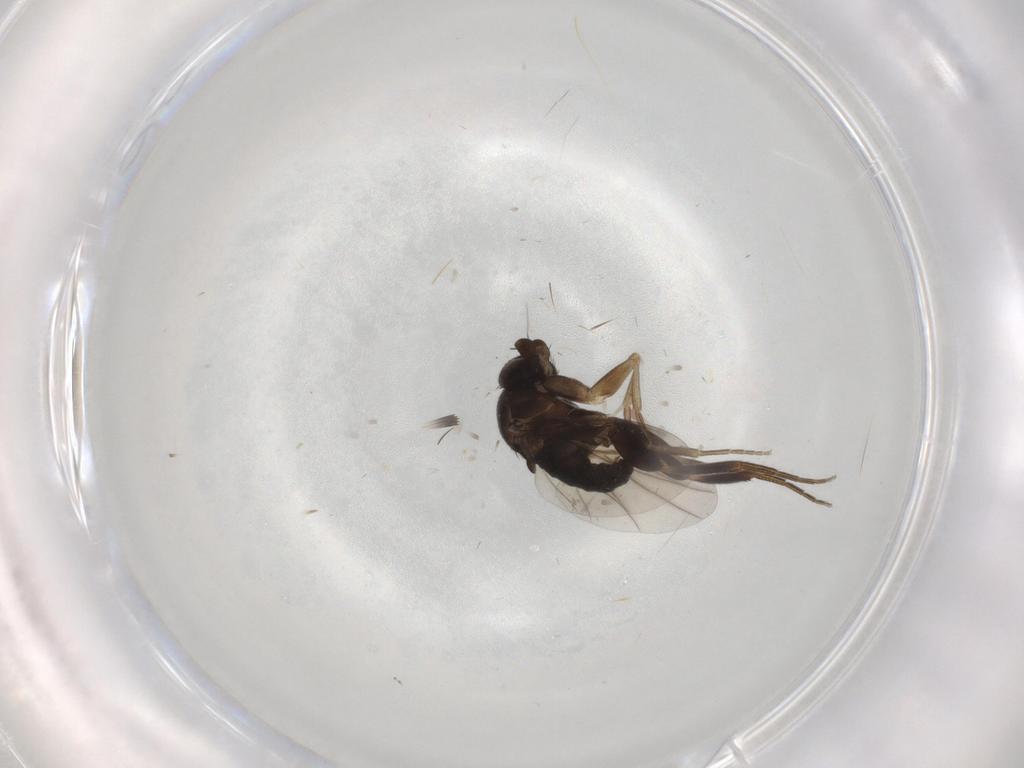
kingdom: Animalia
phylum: Arthropoda
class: Insecta
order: Diptera
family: Phoridae
